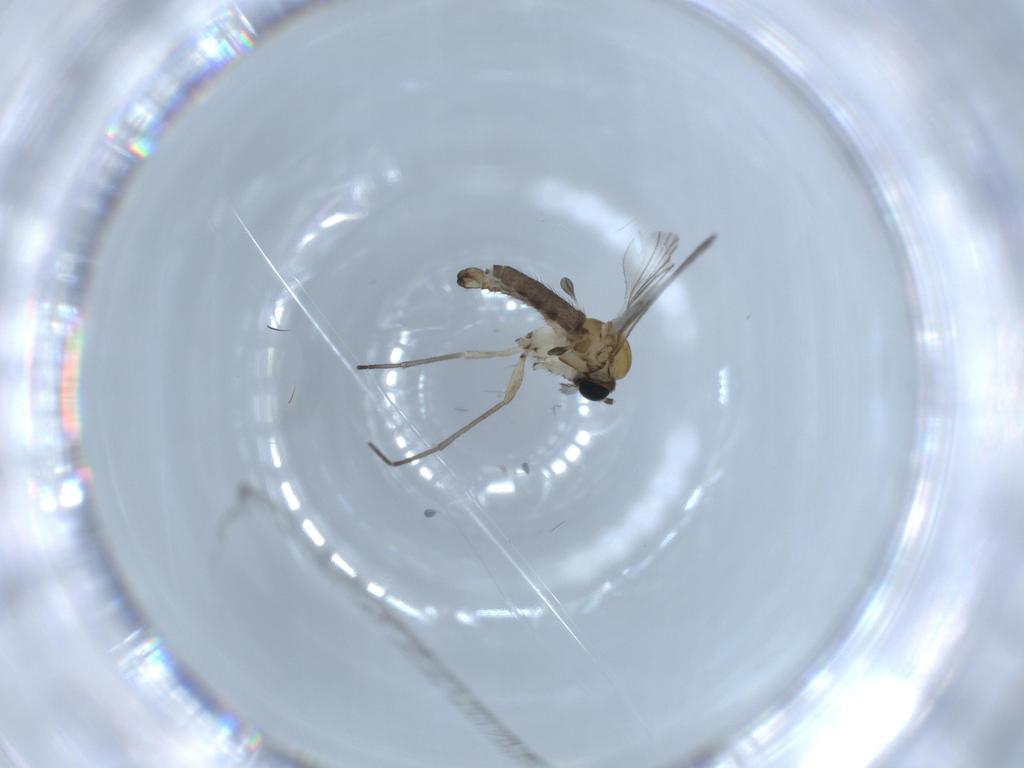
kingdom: Animalia
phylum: Arthropoda
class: Insecta
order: Diptera
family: Sciaridae
